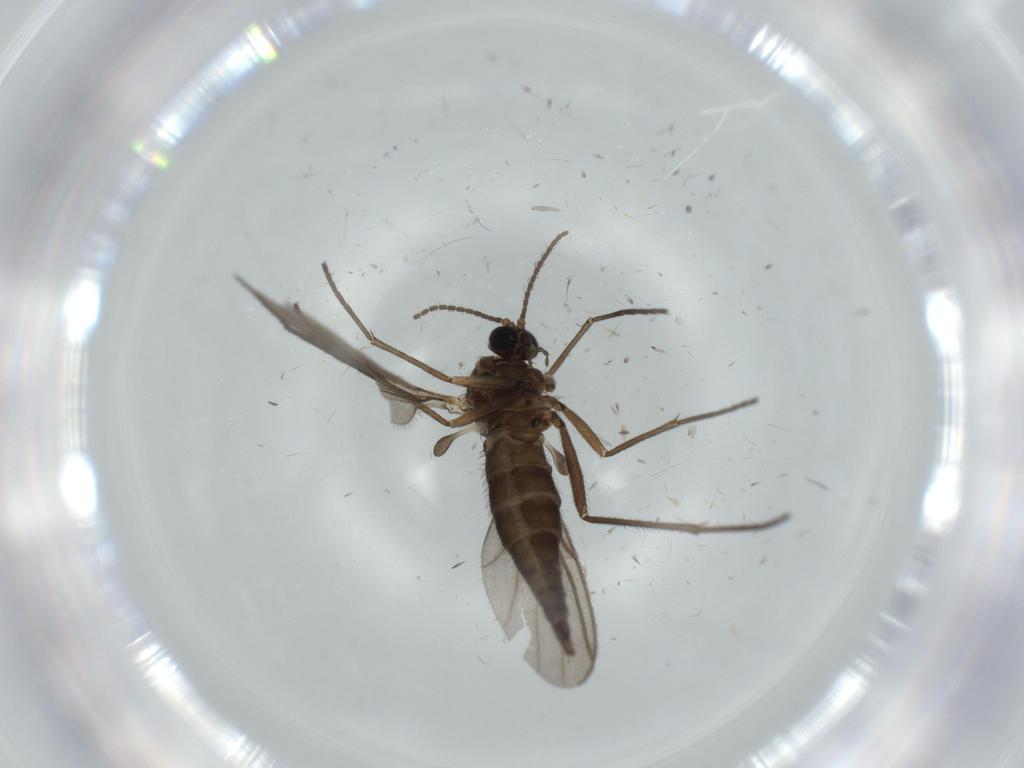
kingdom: Animalia
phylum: Arthropoda
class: Insecta
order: Diptera
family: Sciaridae
